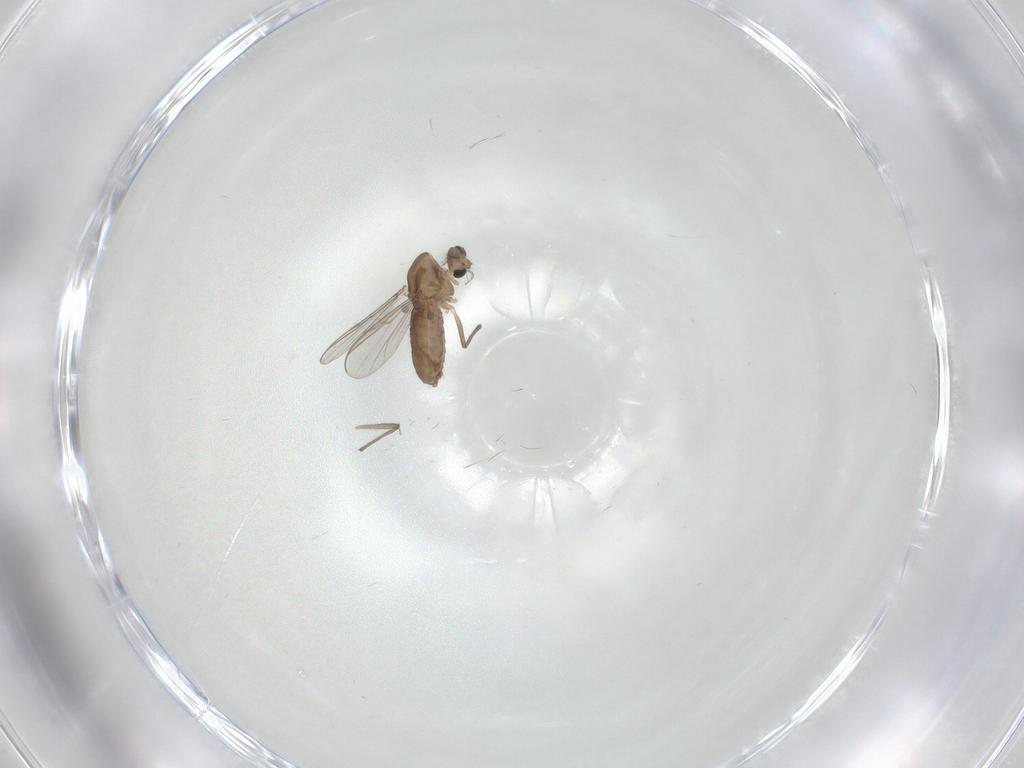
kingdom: Animalia
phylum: Arthropoda
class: Insecta
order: Diptera
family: Chironomidae
